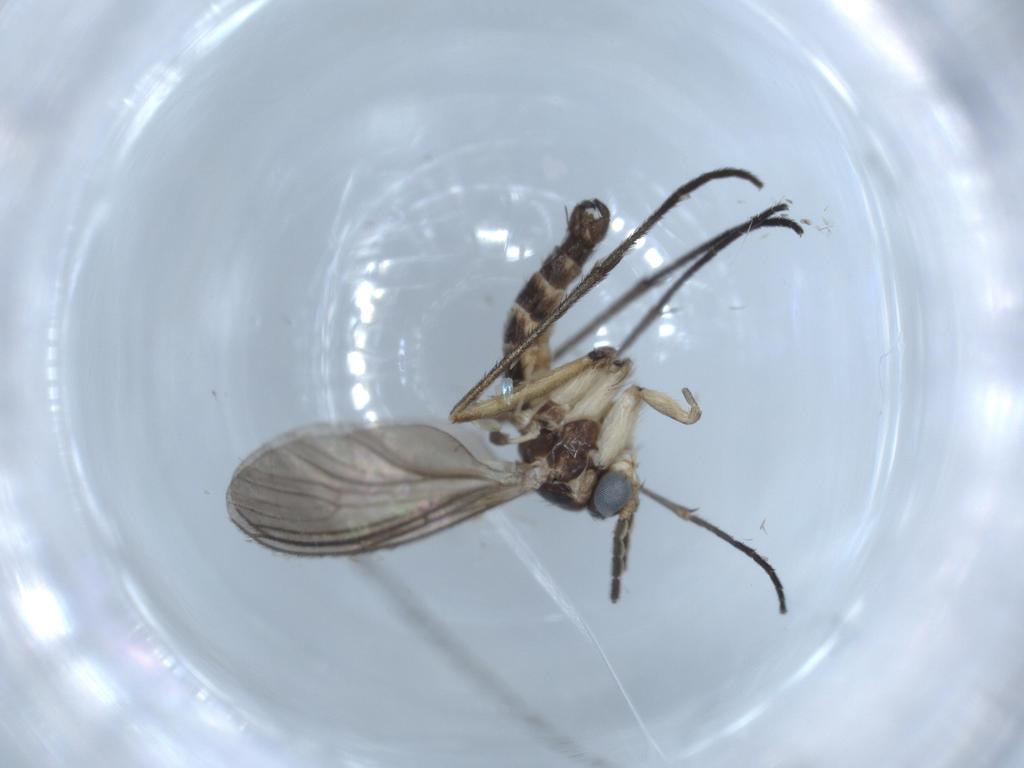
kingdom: Animalia
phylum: Arthropoda
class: Insecta
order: Diptera
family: Sciaridae
